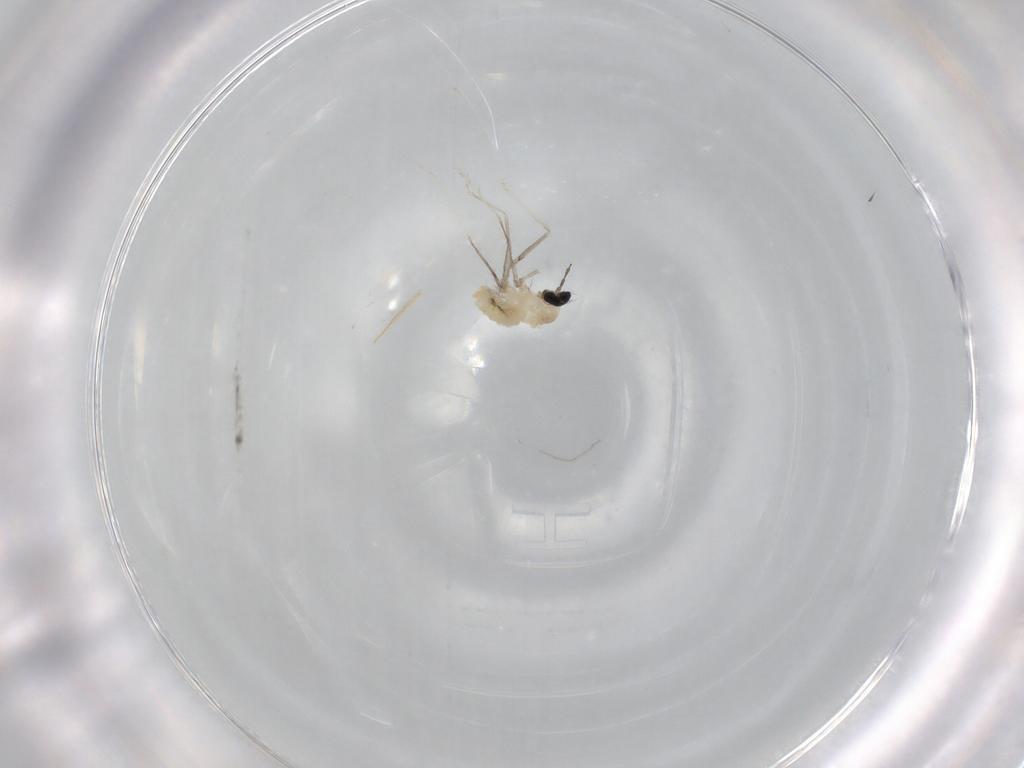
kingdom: Animalia
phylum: Arthropoda
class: Insecta
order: Diptera
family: Cecidomyiidae
